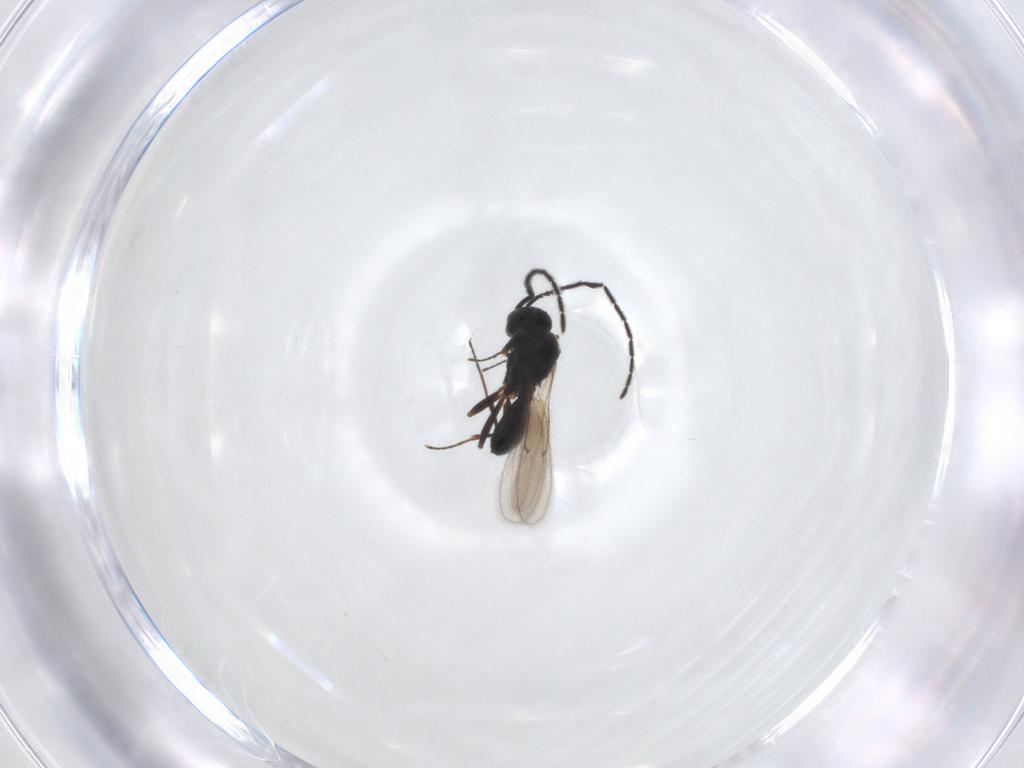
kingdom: Animalia
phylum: Arthropoda
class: Insecta
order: Hymenoptera
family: Scelionidae
